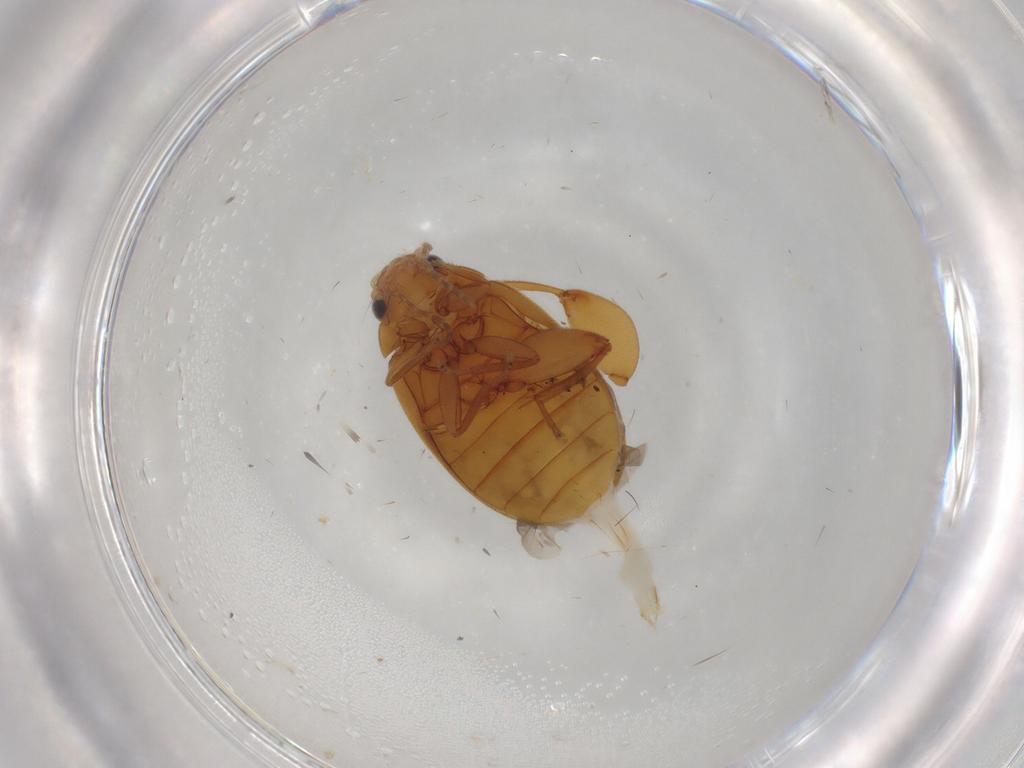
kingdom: Animalia
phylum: Arthropoda
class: Insecta
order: Coleoptera
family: Scirtidae
